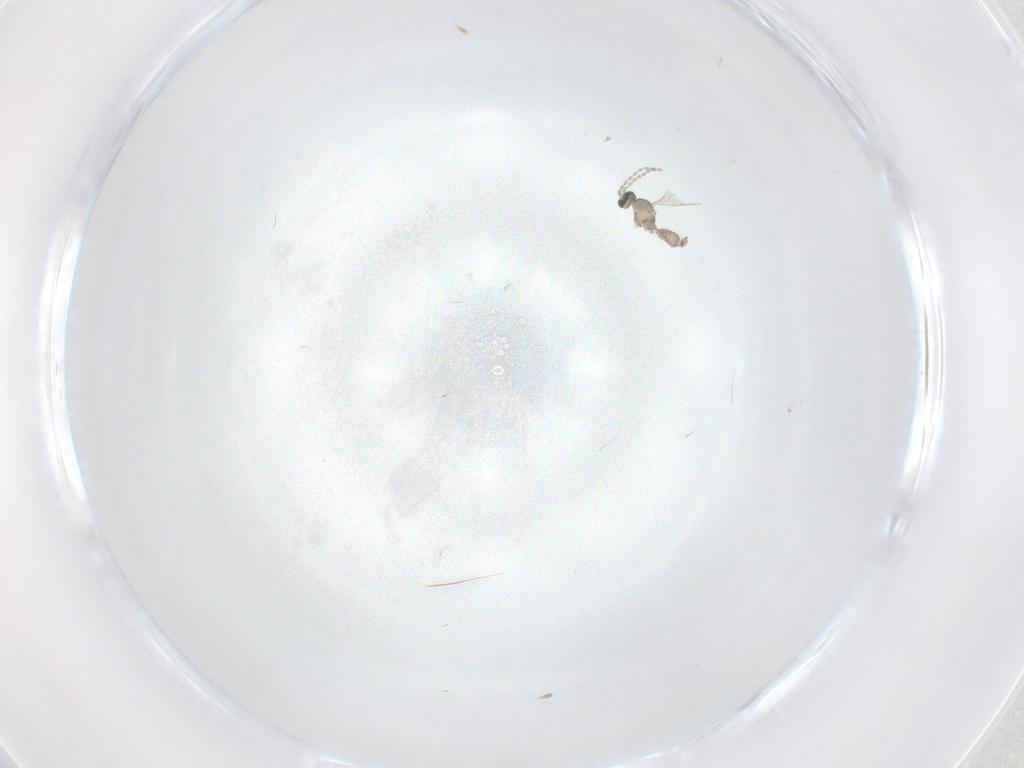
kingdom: Animalia
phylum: Arthropoda
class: Insecta
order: Diptera
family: Cecidomyiidae
